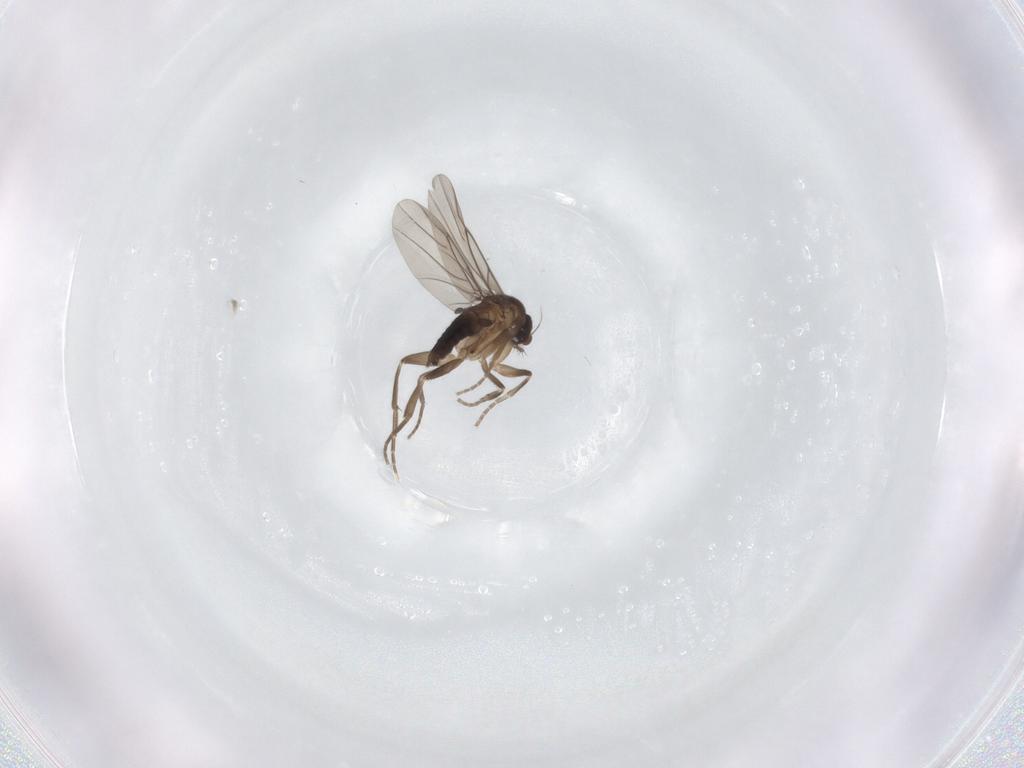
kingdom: Animalia
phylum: Arthropoda
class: Insecta
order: Diptera
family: Phoridae
